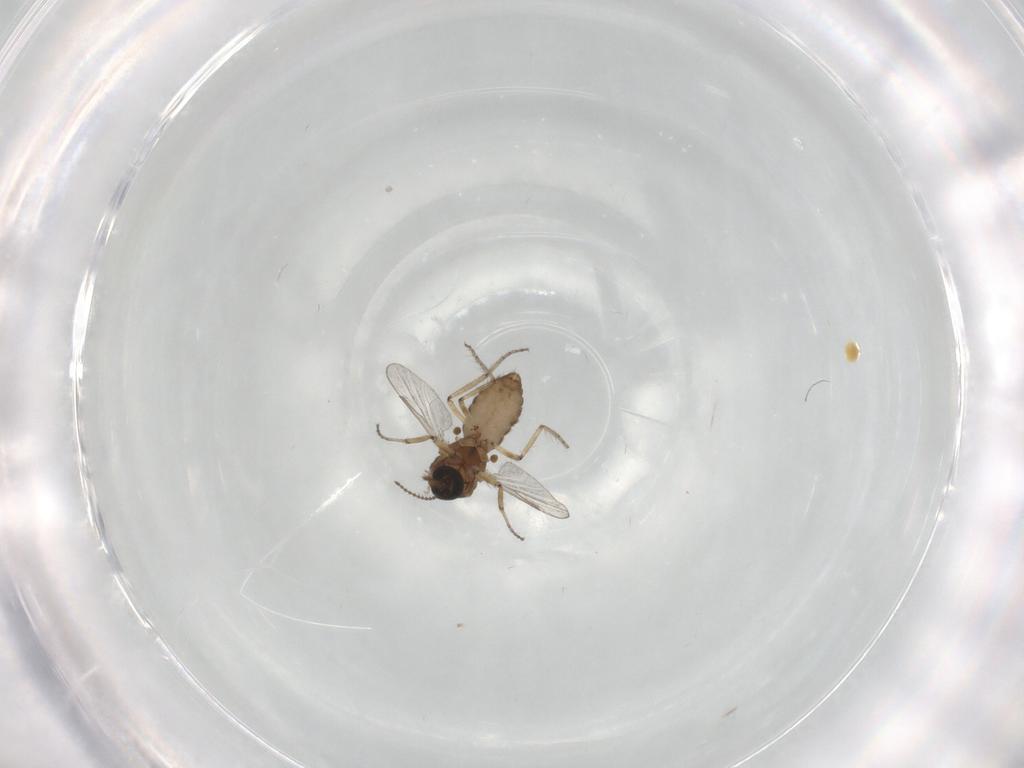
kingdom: Animalia
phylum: Arthropoda
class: Insecta
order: Diptera
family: Ceratopogonidae
